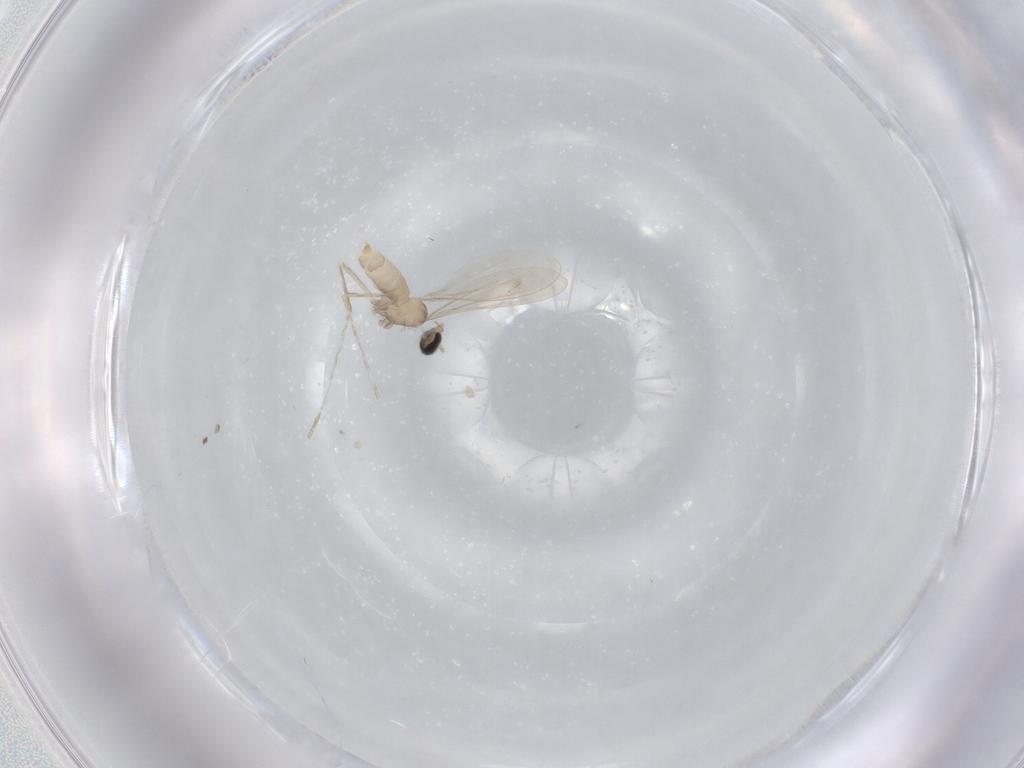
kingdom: Animalia
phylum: Arthropoda
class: Insecta
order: Diptera
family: Cecidomyiidae
